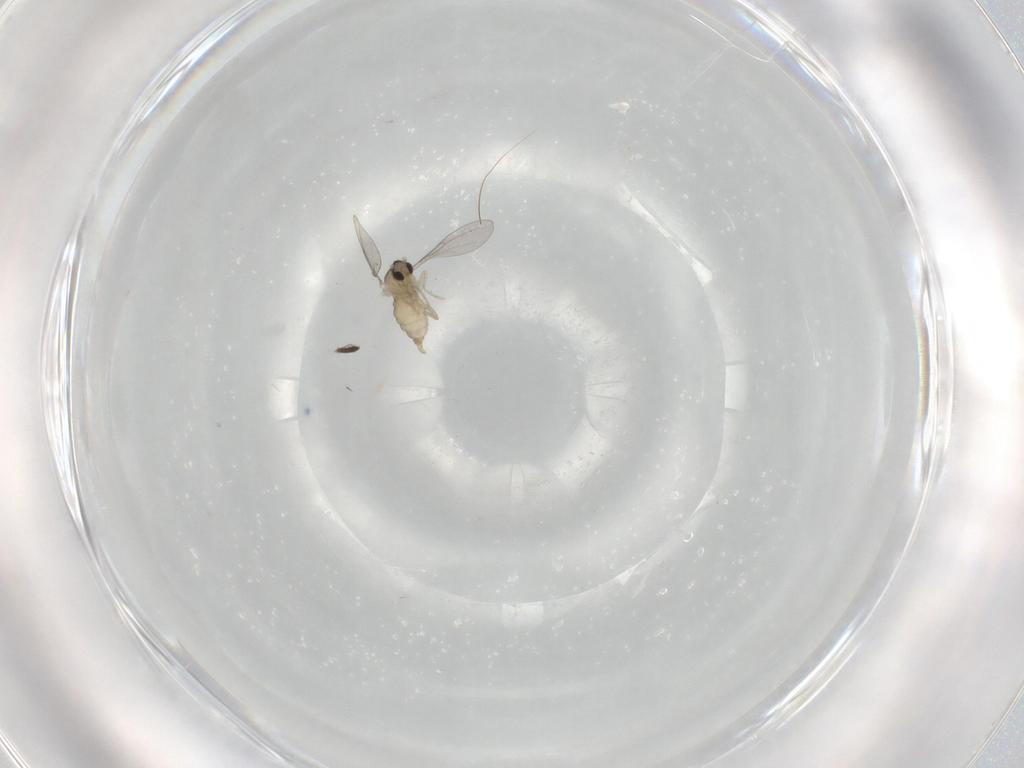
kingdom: Animalia
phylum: Arthropoda
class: Insecta
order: Diptera
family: Cecidomyiidae
